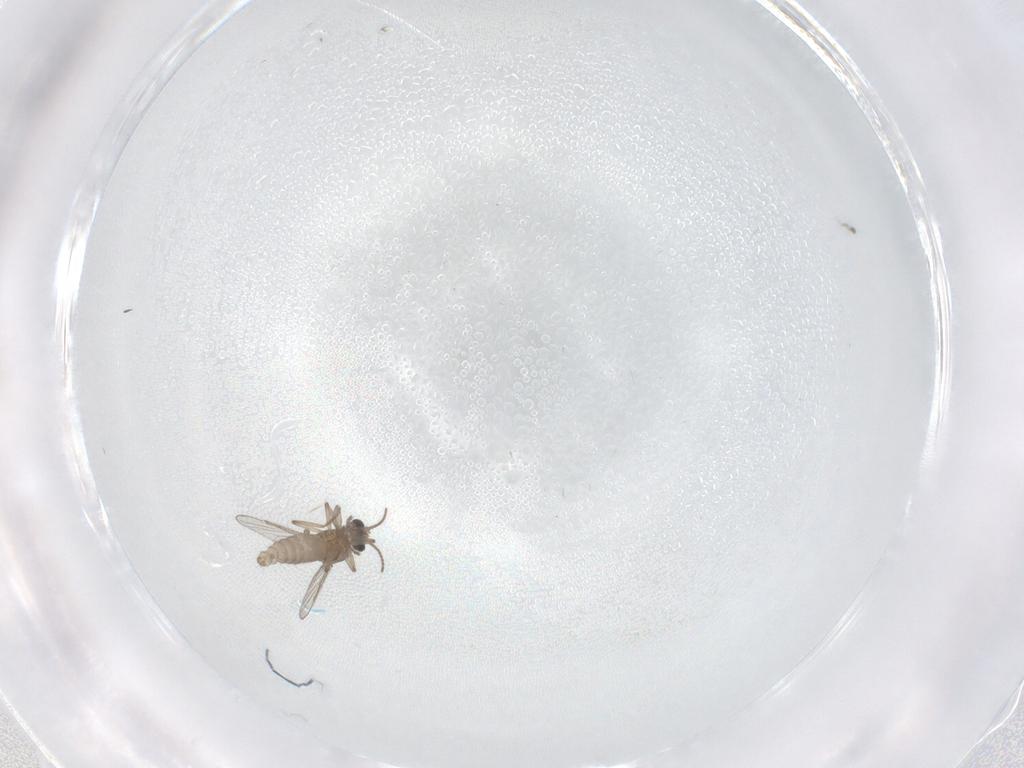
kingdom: Animalia
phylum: Arthropoda
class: Insecta
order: Diptera
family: Ceratopogonidae
